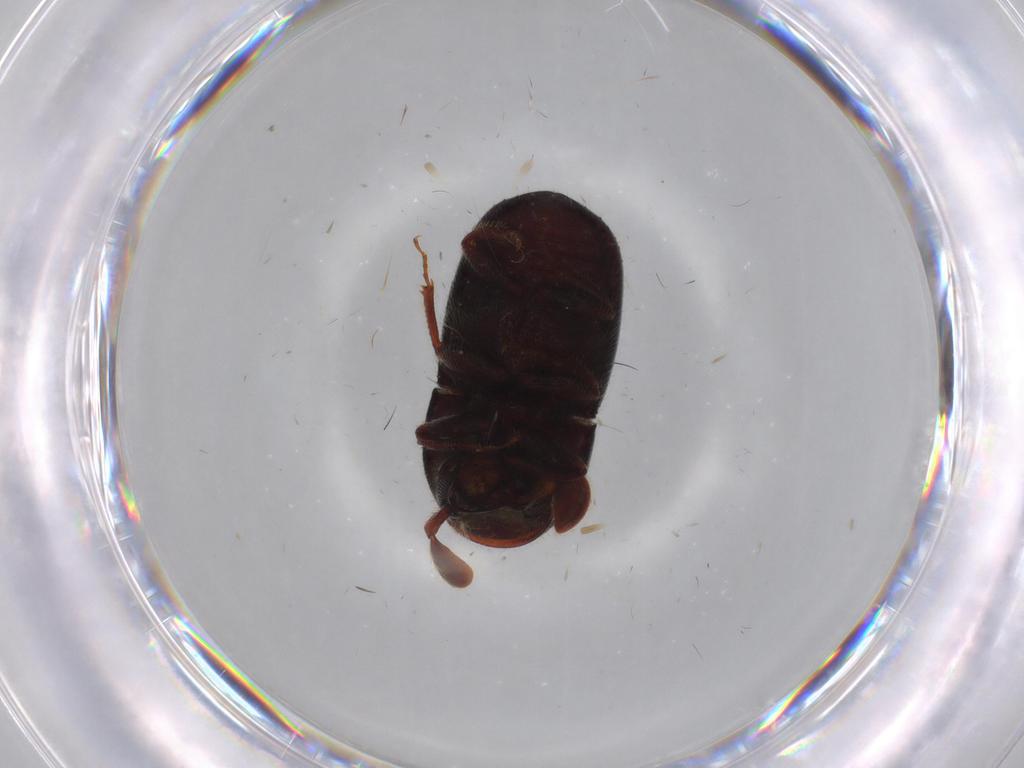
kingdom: Animalia
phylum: Arthropoda
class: Insecta
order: Coleoptera
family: Curculionidae
